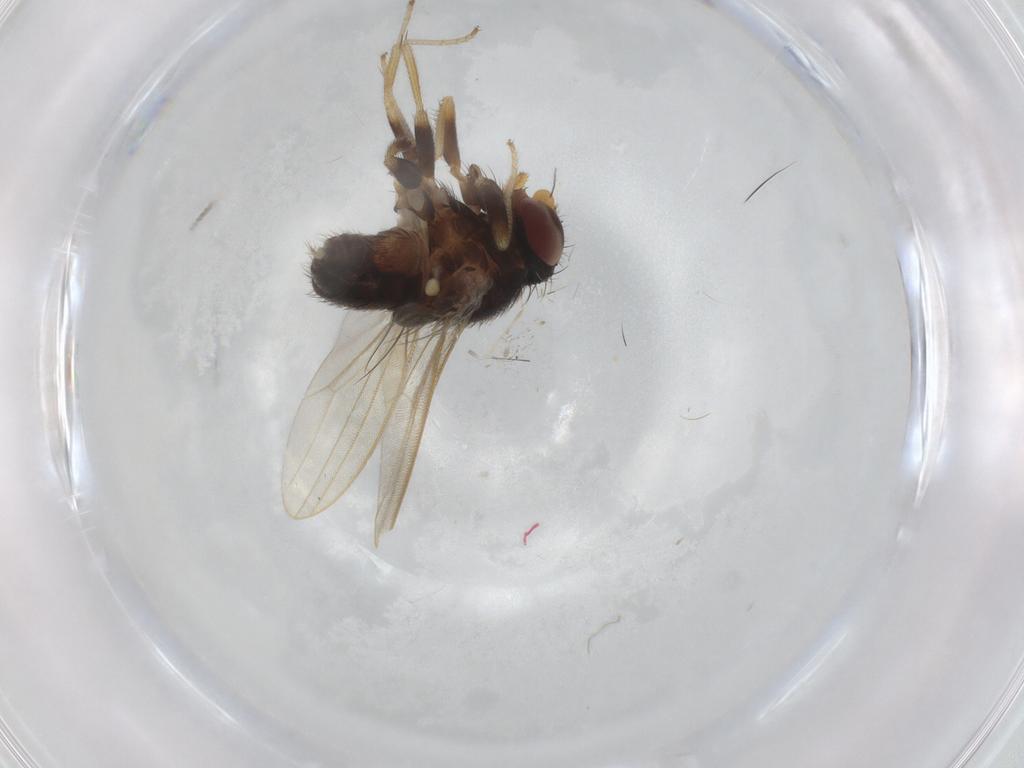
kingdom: Animalia
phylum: Arthropoda
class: Insecta
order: Diptera
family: Milichiidae
